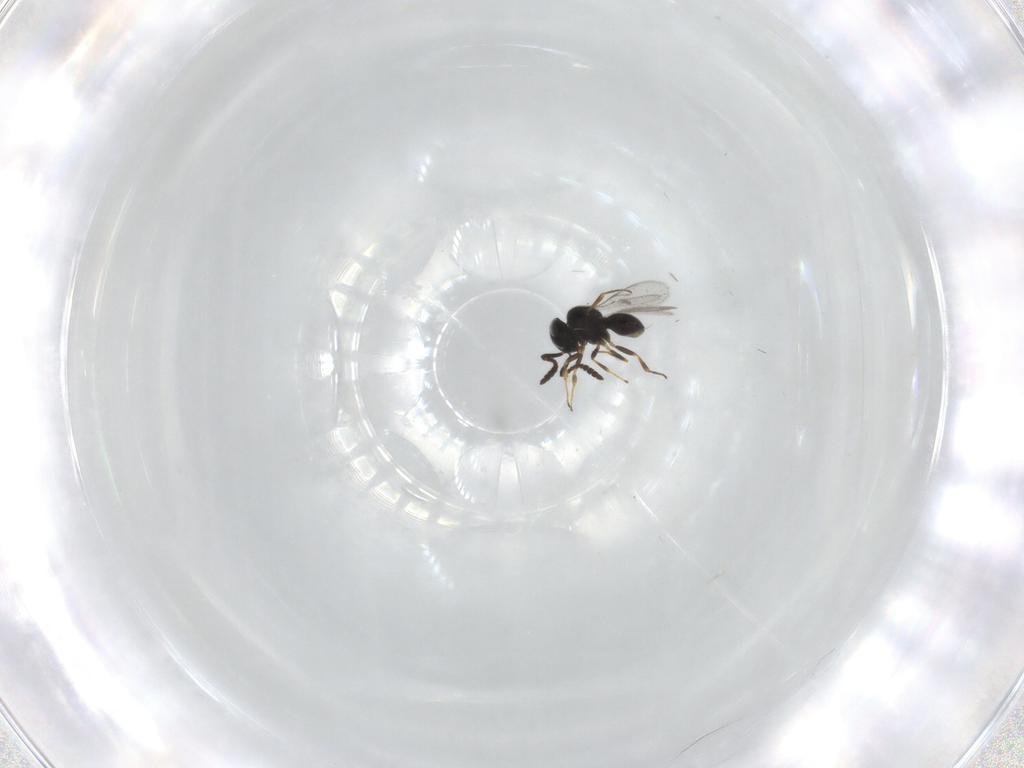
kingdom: Animalia
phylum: Arthropoda
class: Insecta
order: Hymenoptera
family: Scelionidae
